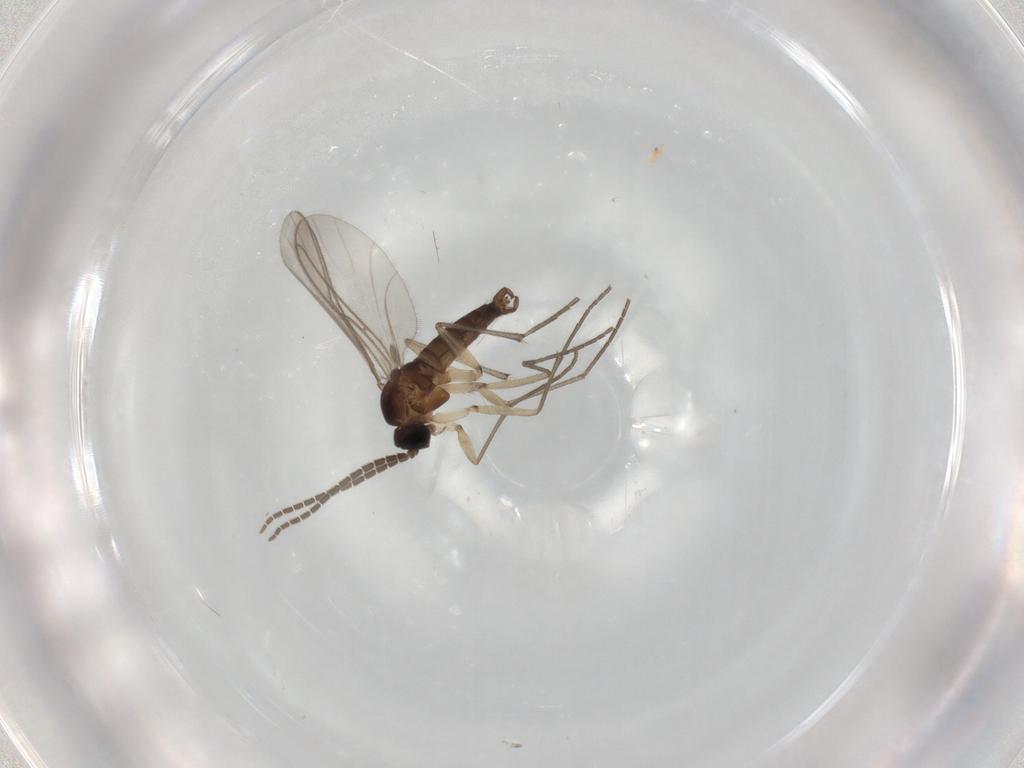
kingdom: Animalia
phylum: Arthropoda
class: Insecta
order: Diptera
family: Sciaridae
